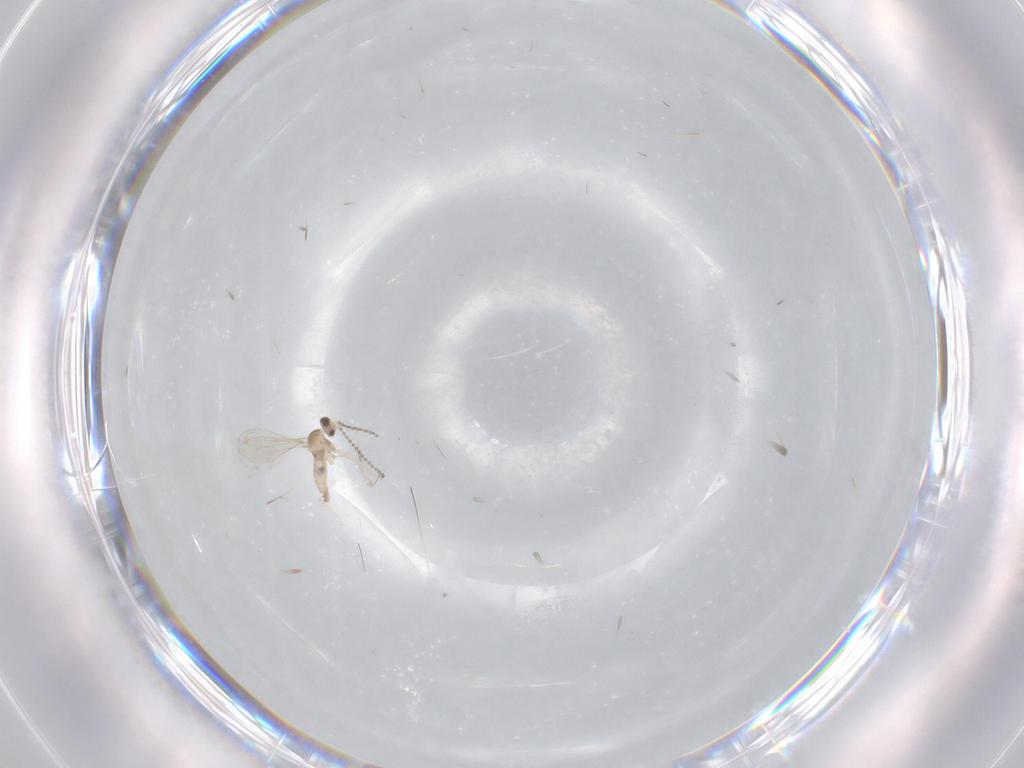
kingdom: Animalia
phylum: Arthropoda
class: Insecta
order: Diptera
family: Cecidomyiidae
